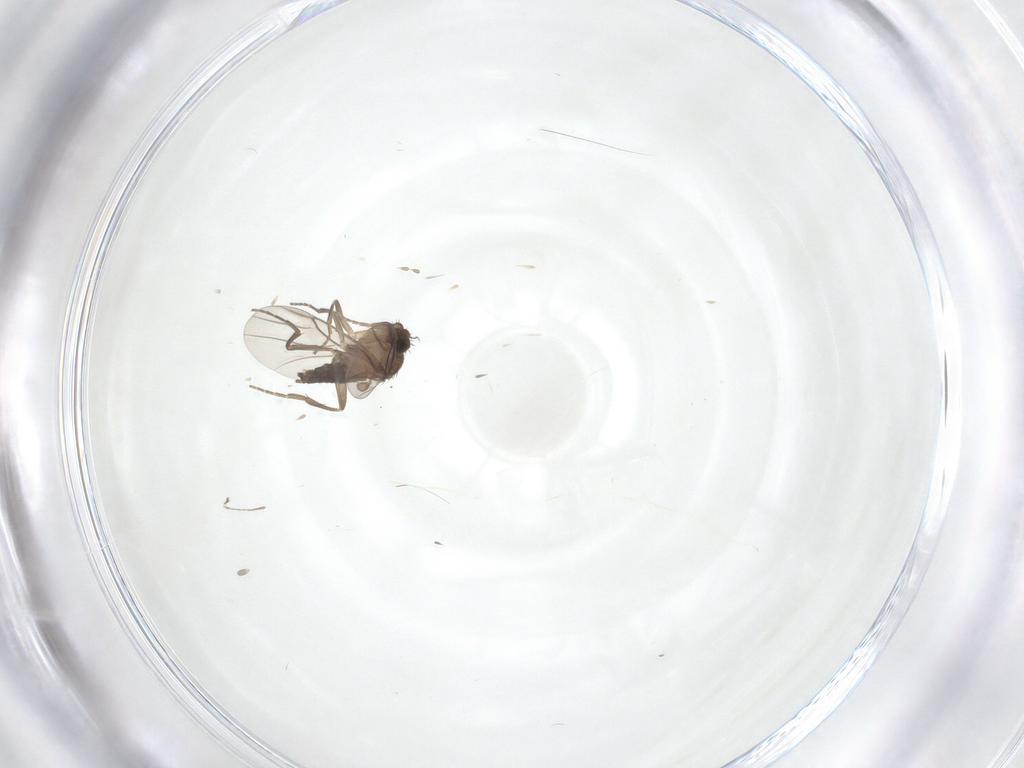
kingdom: Animalia
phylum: Arthropoda
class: Insecta
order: Diptera
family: Phoridae
